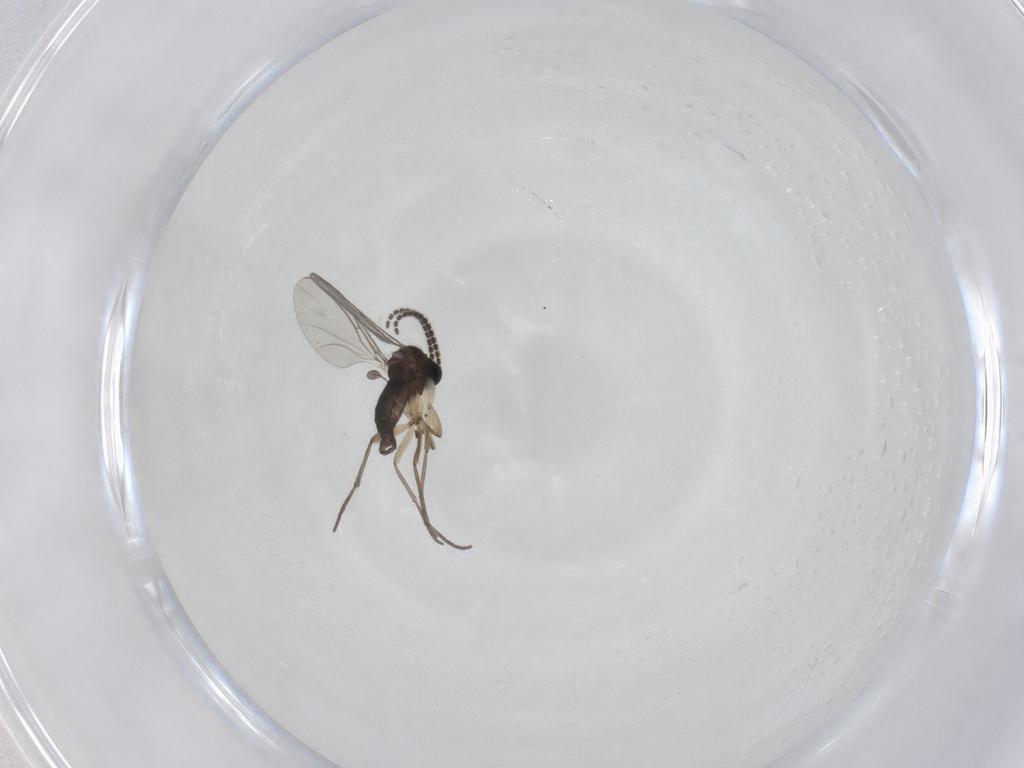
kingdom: Animalia
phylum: Arthropoda
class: Insecta
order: Diptera
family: Sciaridae
